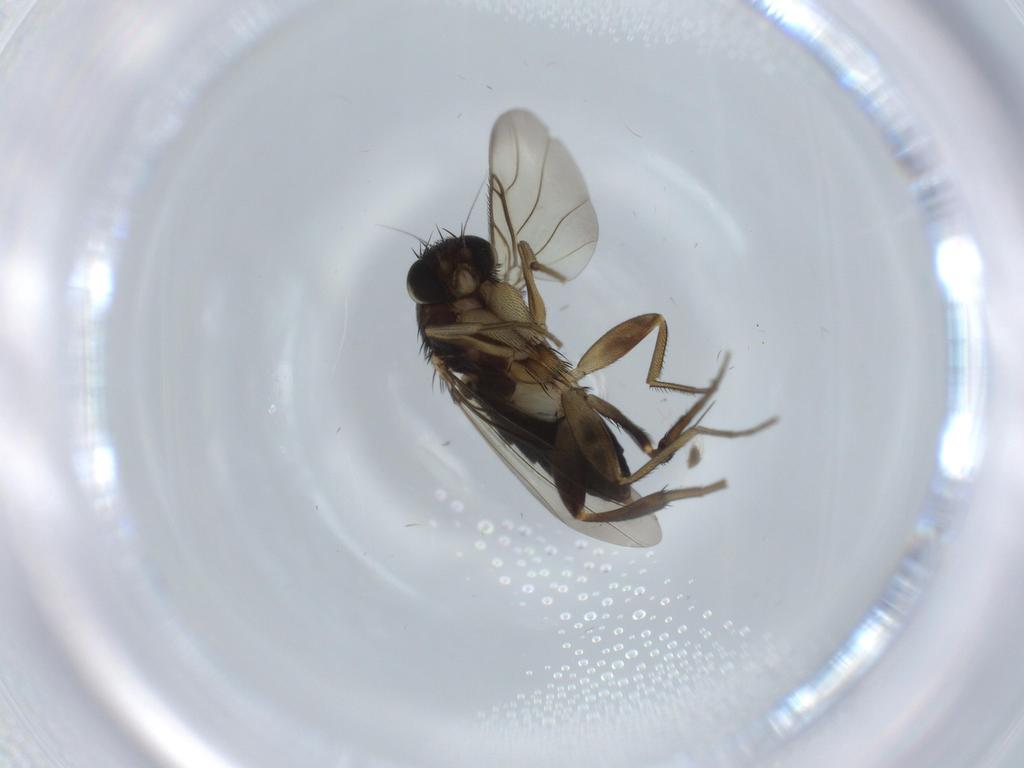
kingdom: Animalia
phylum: Arthropoda
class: Insecta
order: Diptera
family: Phoridae
